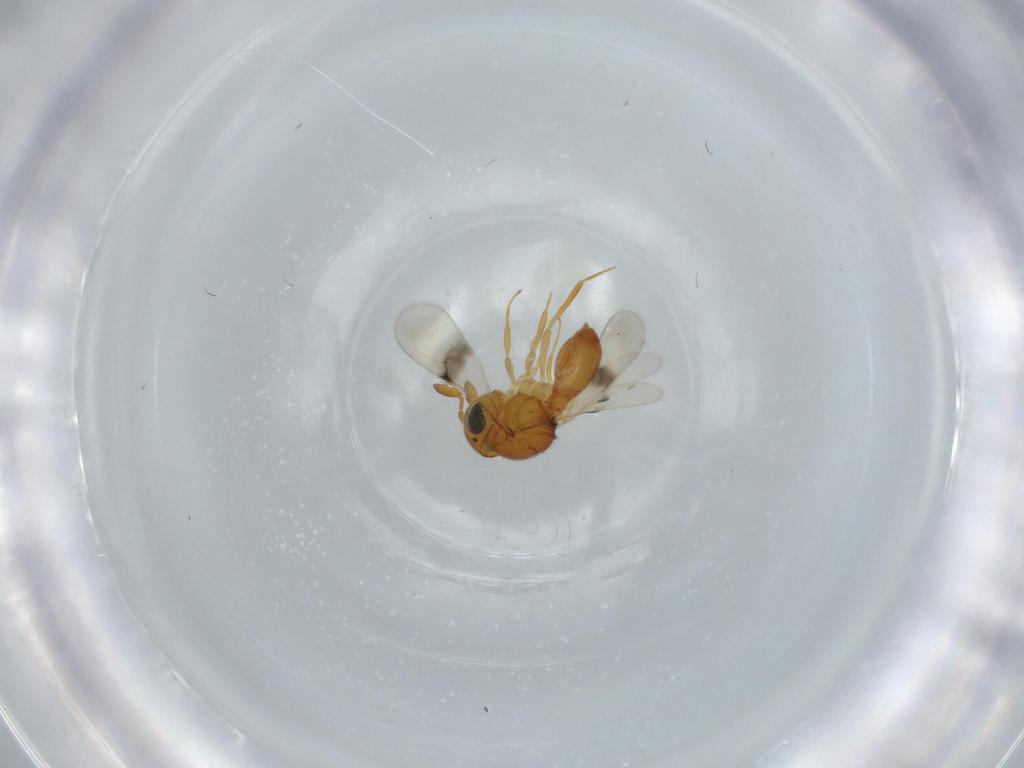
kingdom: Animalia
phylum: Arthropoda
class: Insecta
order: Hymenoptera
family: Scelionidae
